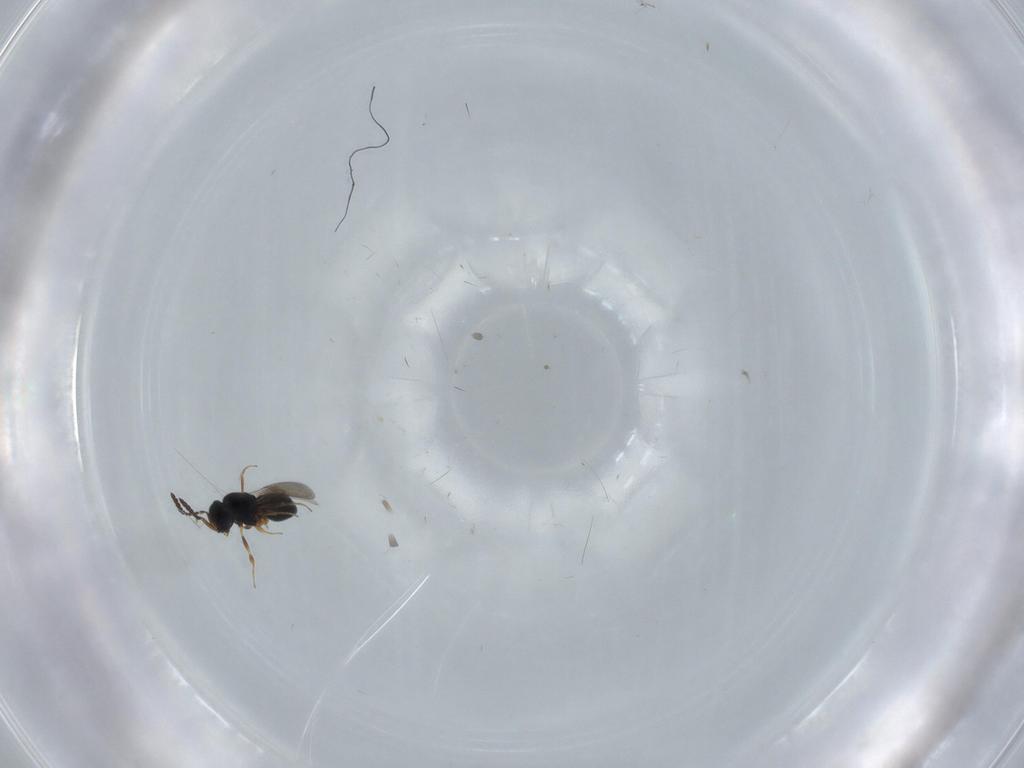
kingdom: Animalia
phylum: Arthropoda
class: Insecta
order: Hymenoptera
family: Scelionidae
